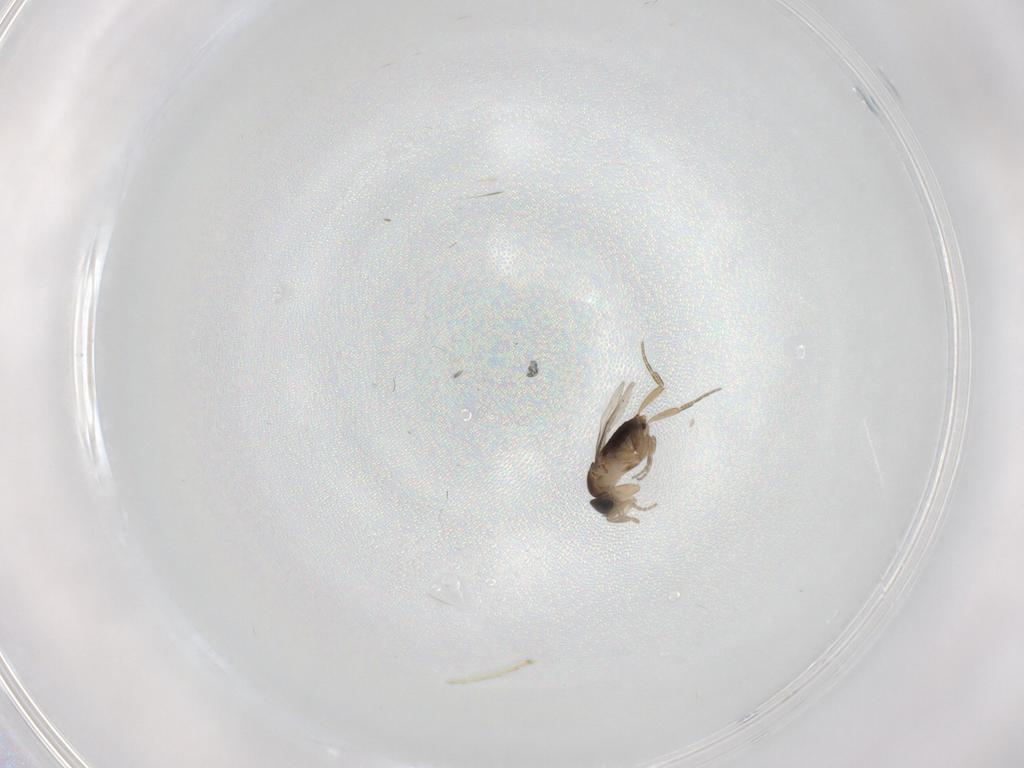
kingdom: Animalia
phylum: Arthropoda
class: Insecta
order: Diptera
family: Phoridae
